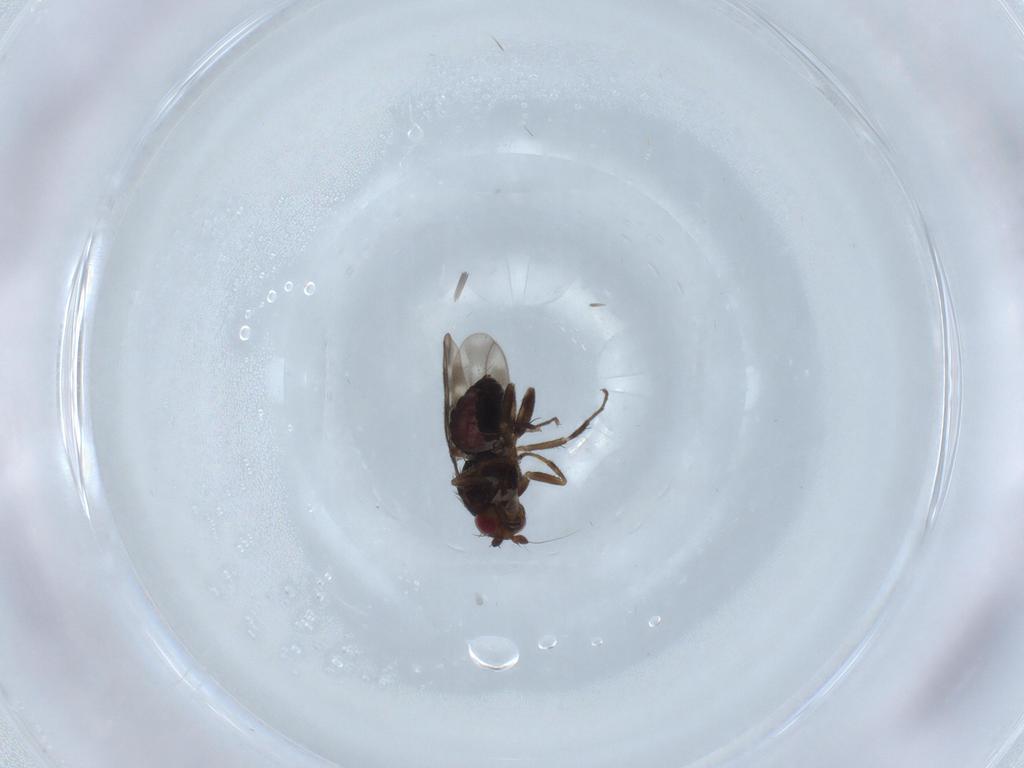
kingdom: Animalia
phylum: Arthropoda
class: Insecta
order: Diptera
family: Sphaeroceridae
